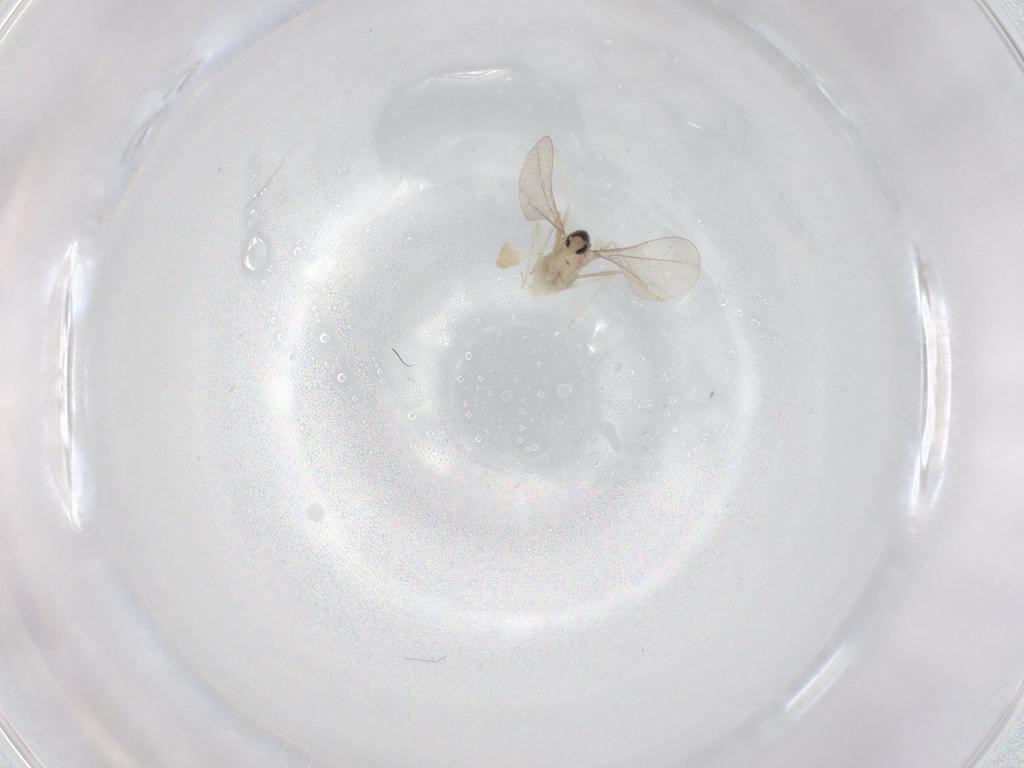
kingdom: Animalia
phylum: Arthropoda
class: Insecta
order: Diptera
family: Cecidomyiidae
